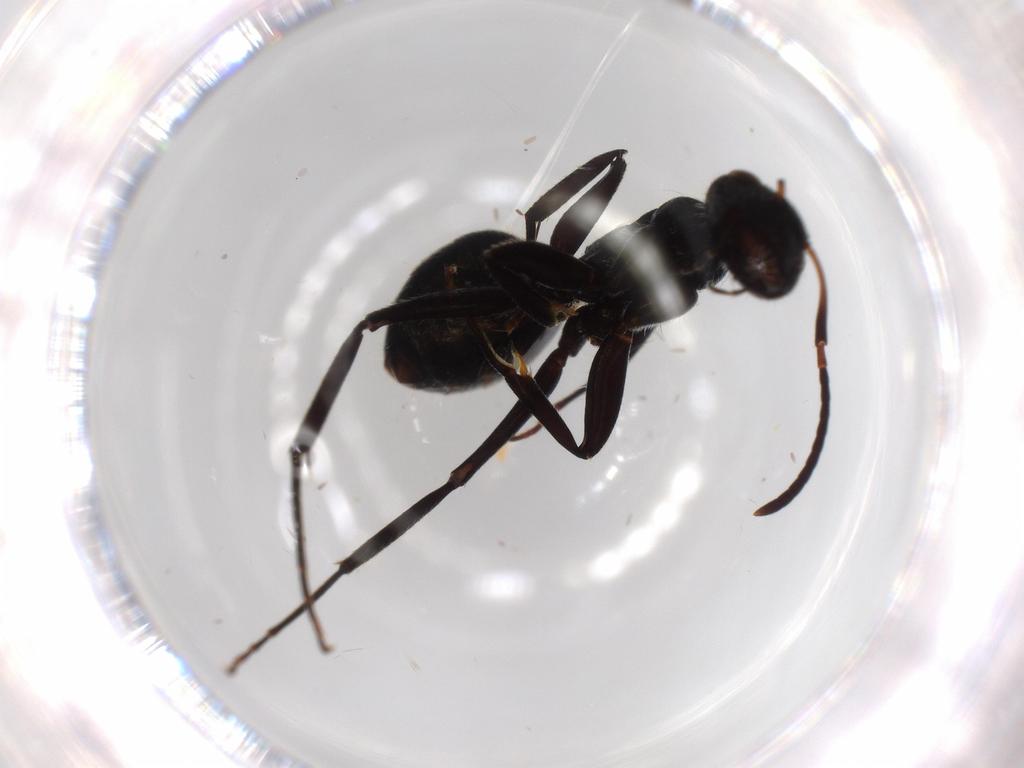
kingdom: Animalia
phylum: Arthropoda
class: Insecta
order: Hymenoptera
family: Formicidae
